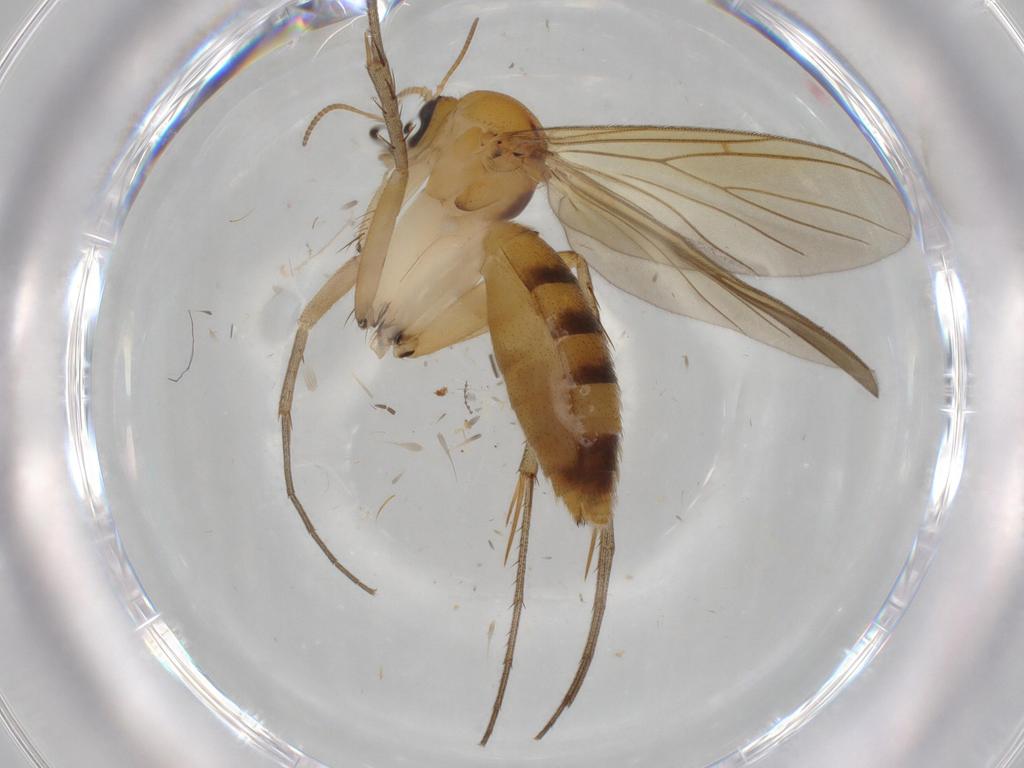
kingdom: Animalia
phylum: Arthropoda
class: Insecta
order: Diptera
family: Mycetophilidae
